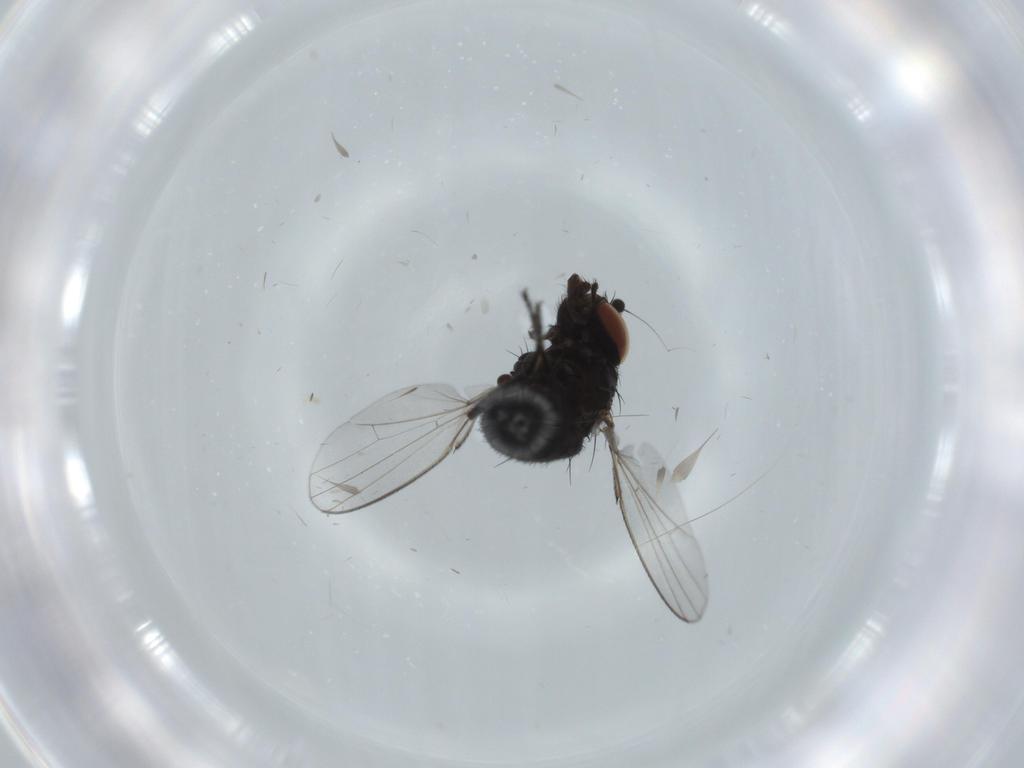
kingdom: Animalia
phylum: Arthropoda
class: Insecta
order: Diptera
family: Milichiidae
